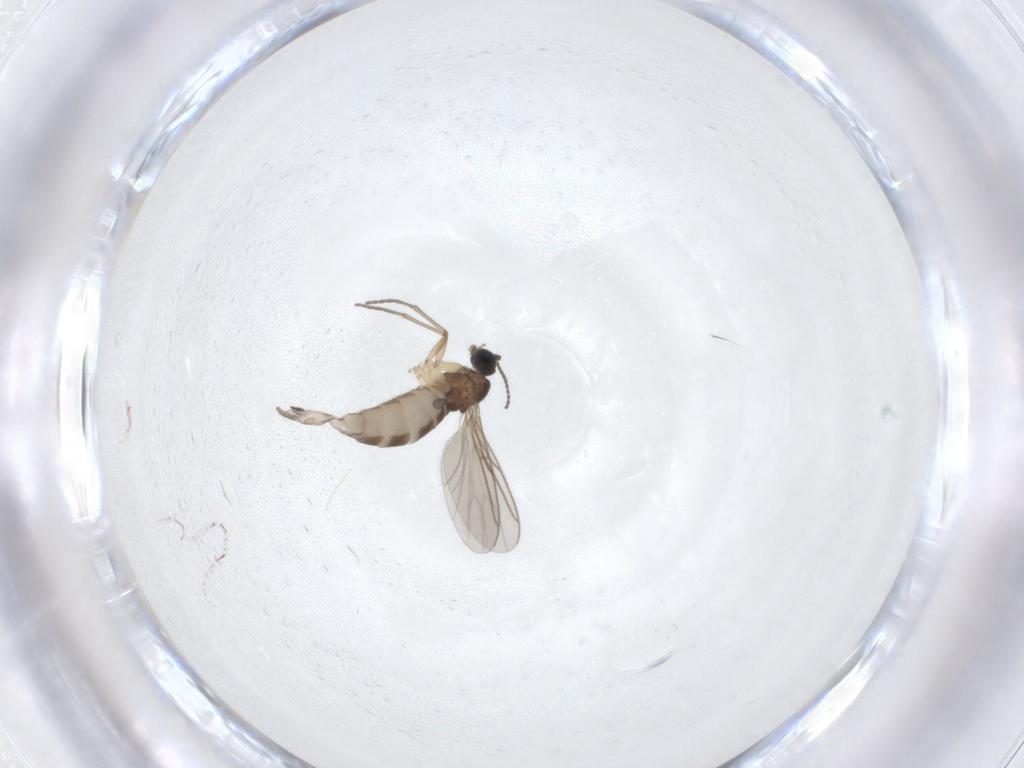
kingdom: Animalia
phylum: Arthropoda
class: Insecta
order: Diptera
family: Sciaridae
